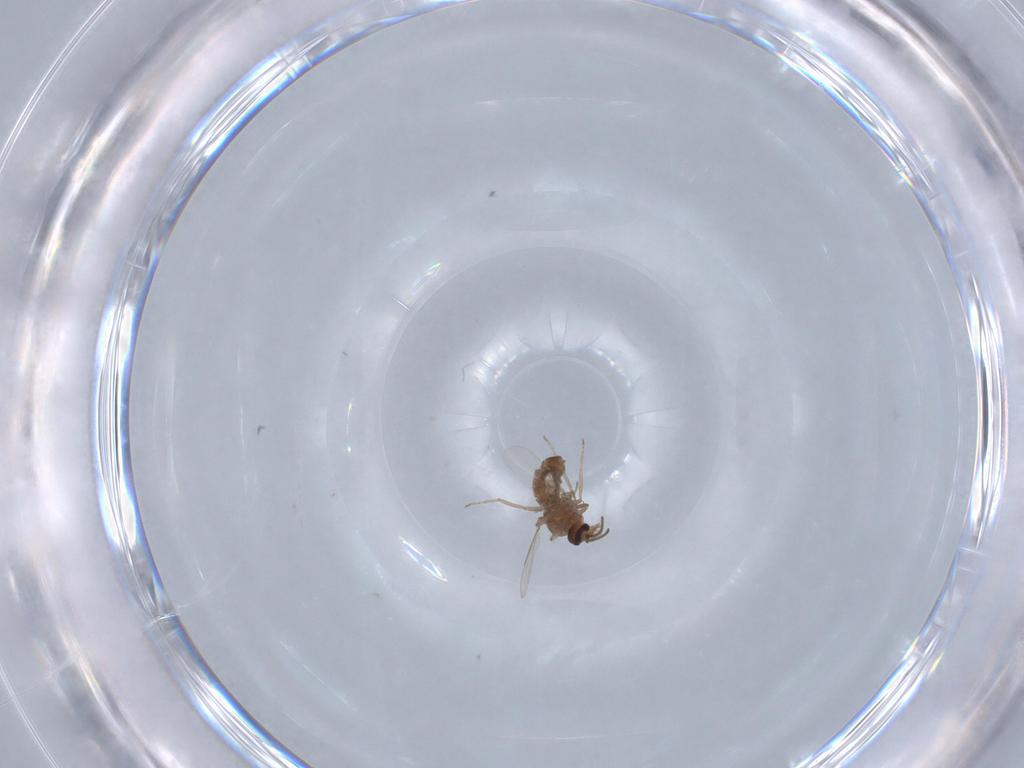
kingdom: Animalia
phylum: Arthropoda
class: Insecta
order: Diptera
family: Ceratopogonidae
